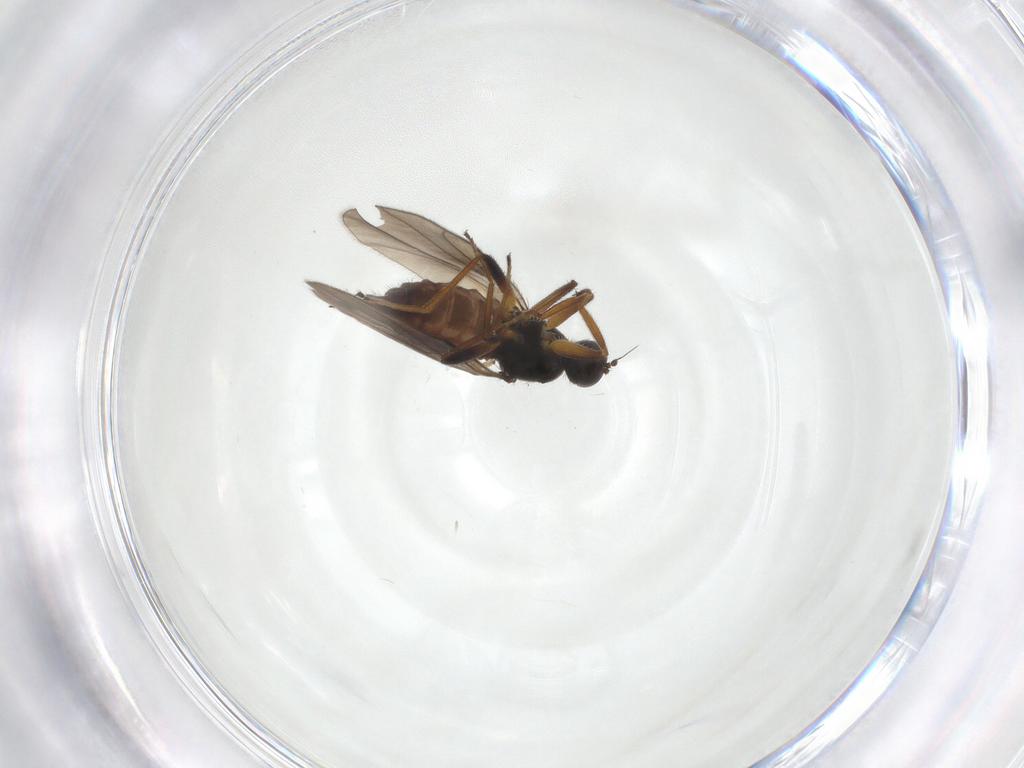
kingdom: Animalia
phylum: Arthropoda
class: Insecta
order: Diptera
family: Hybotidae
